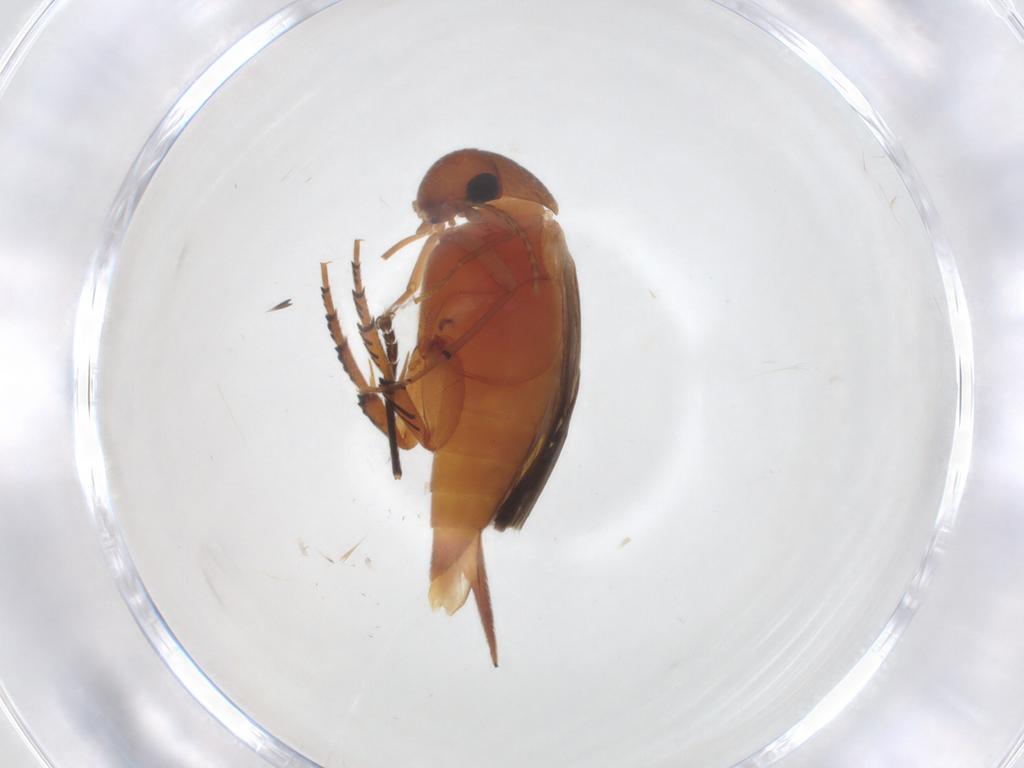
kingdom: Animalia
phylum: Arthropoda
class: Insecta
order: Coleoptera
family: Mordellidae
